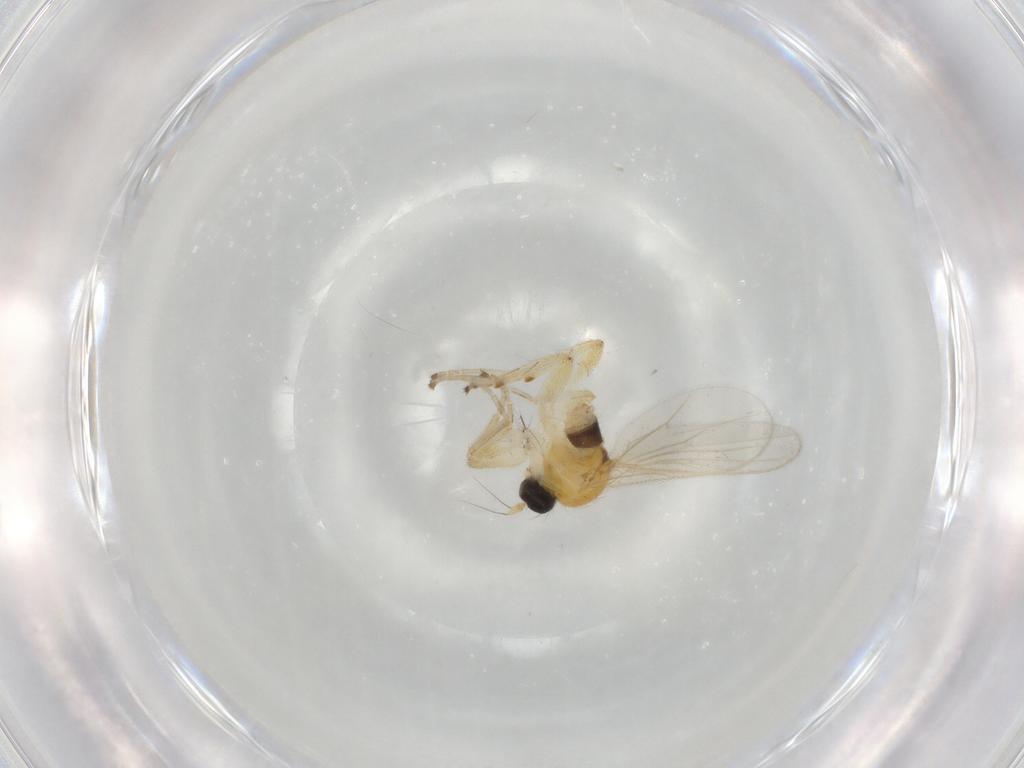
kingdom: Animalia
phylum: Arthropoda
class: Insecta
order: Diptera
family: Hybotidae
